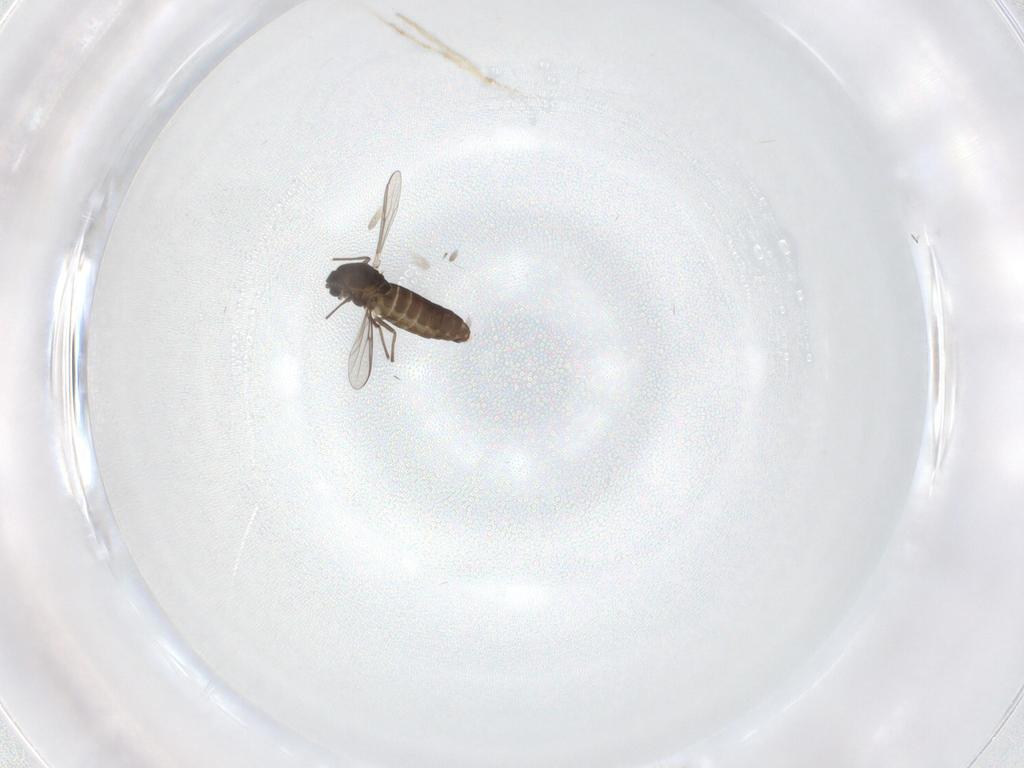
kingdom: Animalia
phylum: Arthropoda
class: Insecta
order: Diptera
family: Chironomidae
